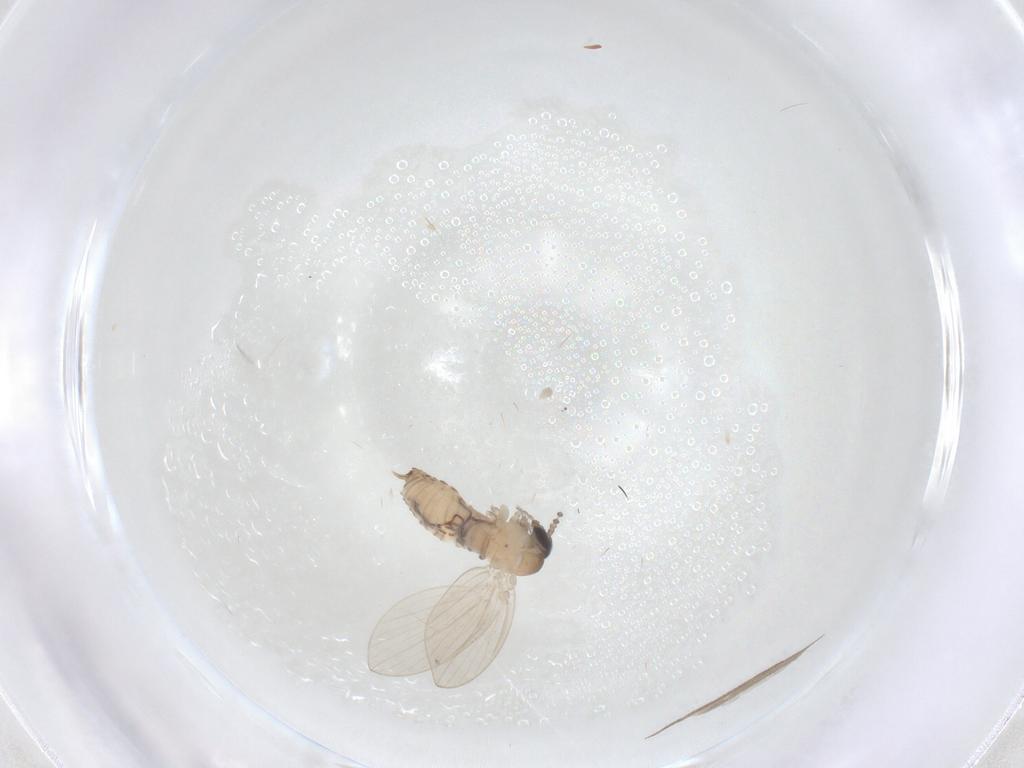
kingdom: Animalia
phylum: Arthropoda
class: Insecta
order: Diptera
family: Psychodidae
